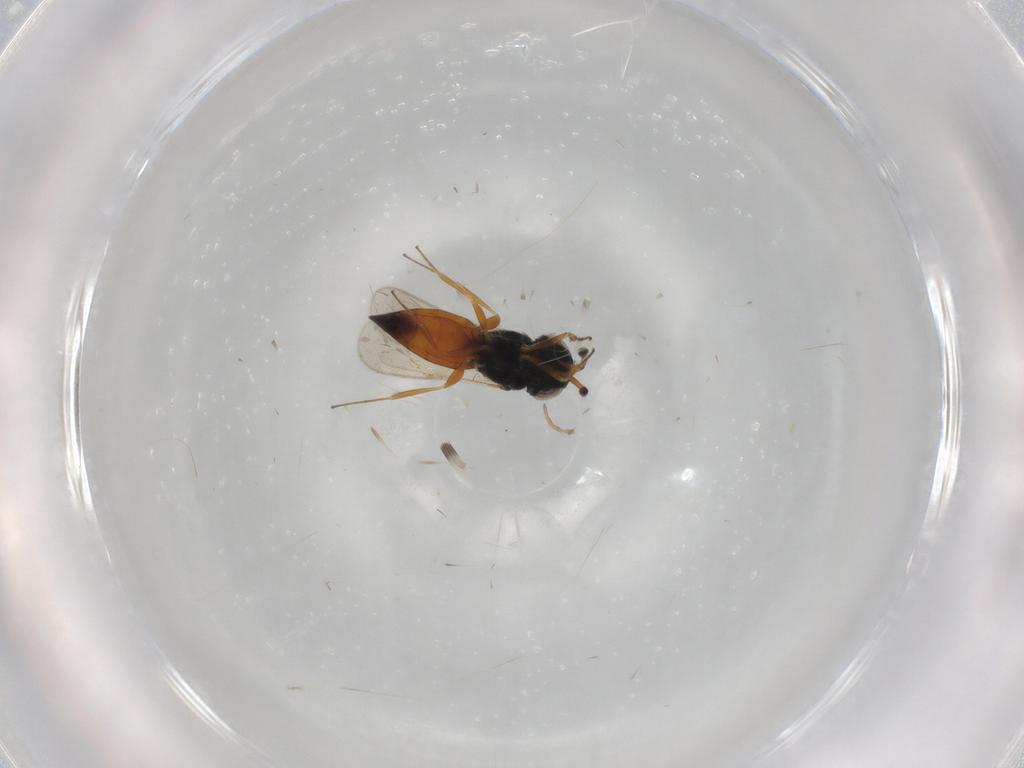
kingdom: Animalia
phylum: Arthropoda
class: Insecta
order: Hymenoptera
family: Scelionidae
